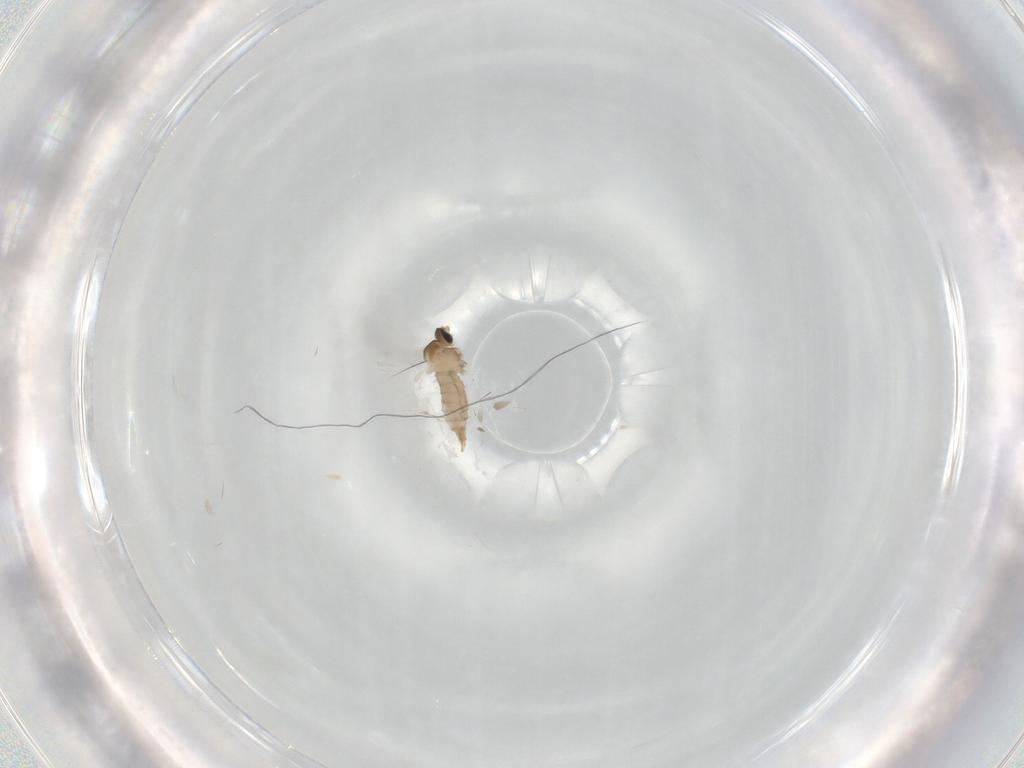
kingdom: Animalia
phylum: Arthropoda
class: Insecta
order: Diptera
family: Cecidomyiidae
